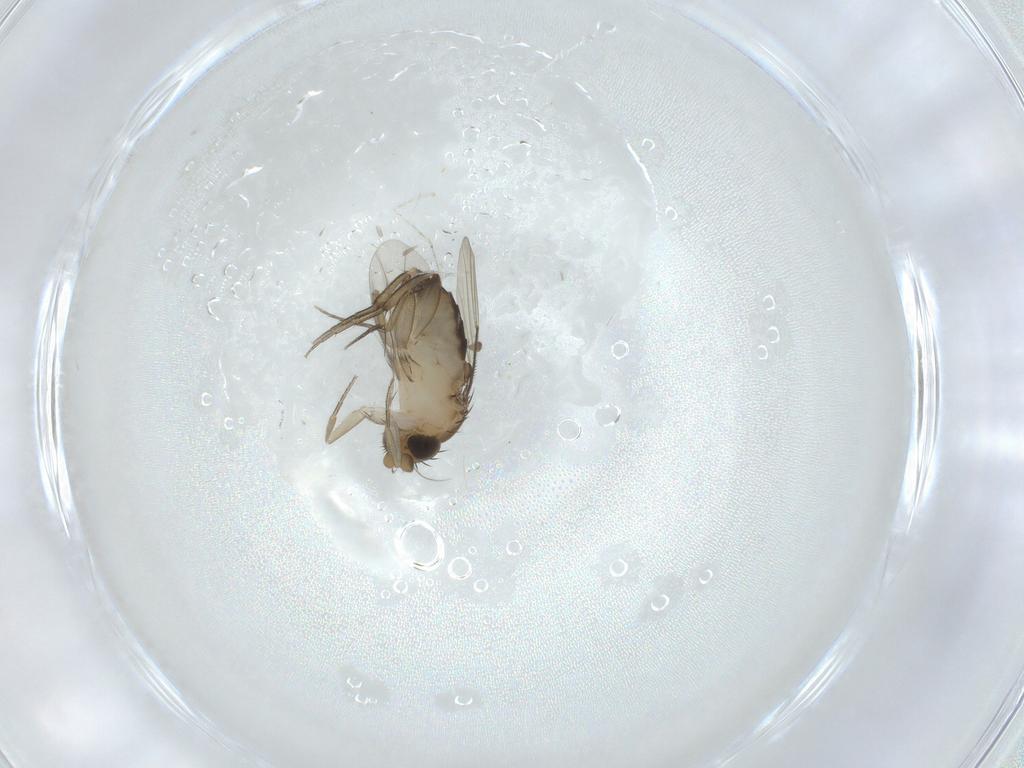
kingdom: Animalia
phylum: Arthropoda
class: Insecta
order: Diptera
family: Phoridae
